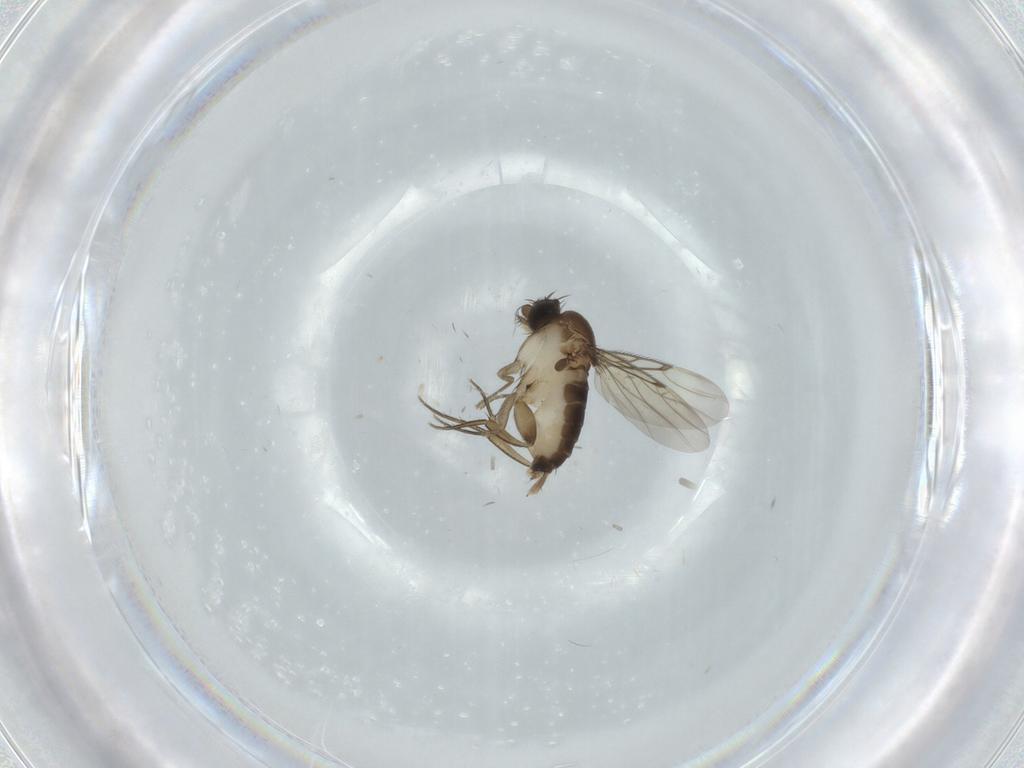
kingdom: Animalia
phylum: Arthropoda
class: Insecta
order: Diptera
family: Phoridae
